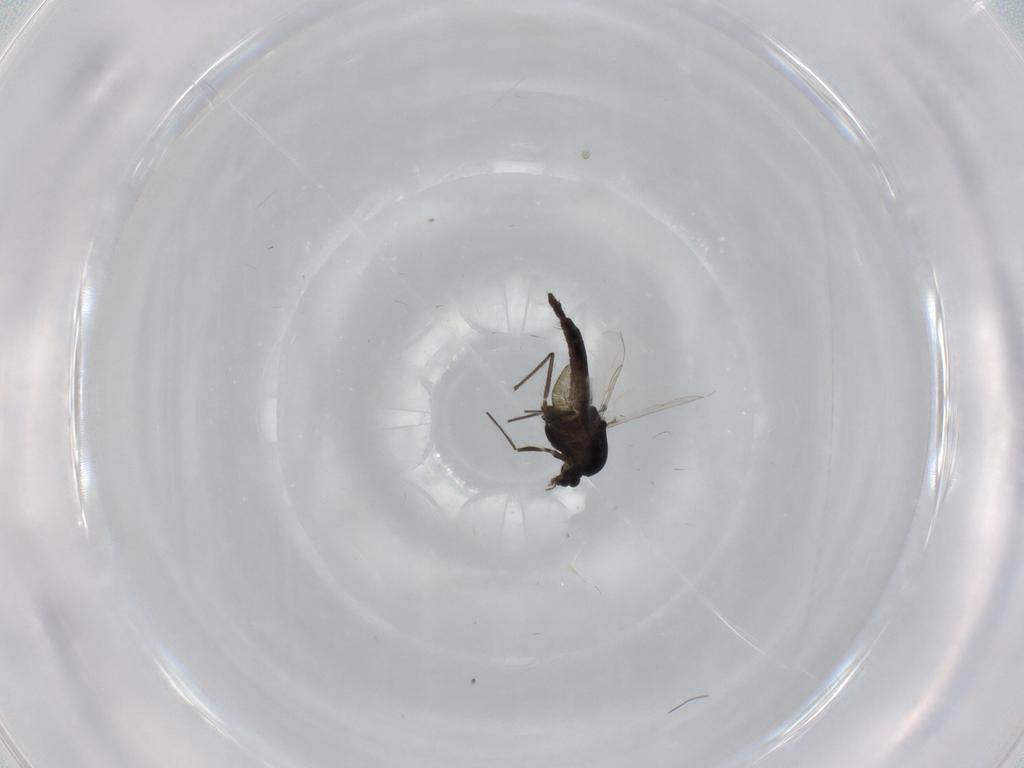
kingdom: Animalia
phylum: Arthropoda
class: Insecta
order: Diptera
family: Chironomidae
